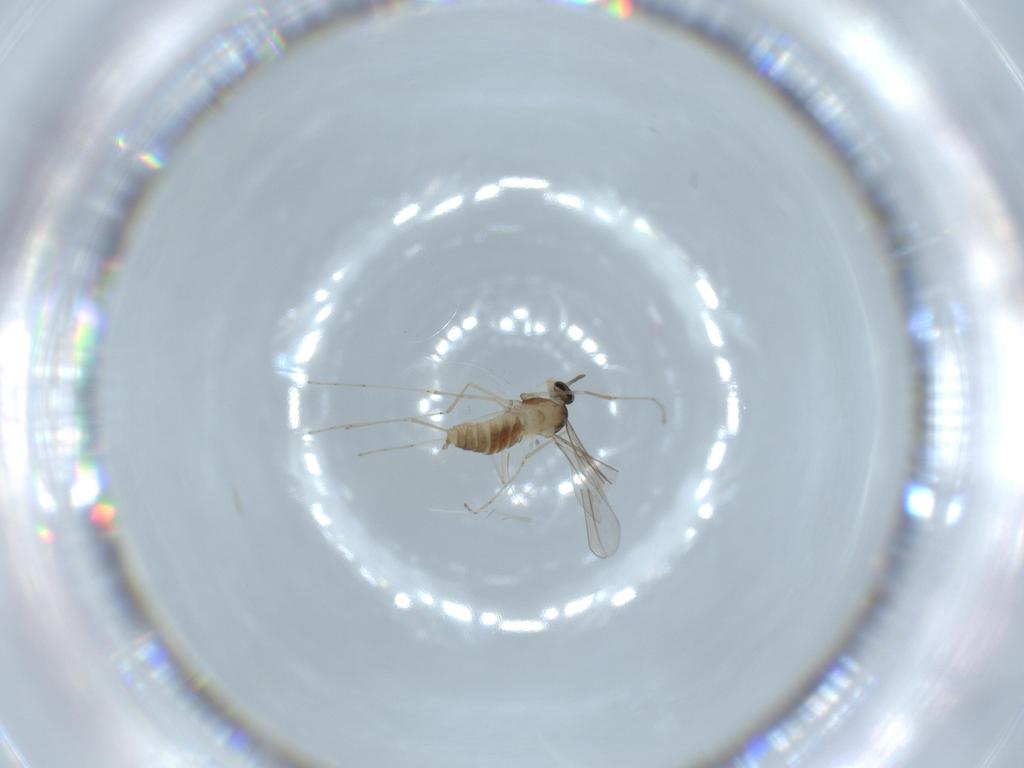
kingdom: Animalia
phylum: Arthropoda
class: Insecta
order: Diptera
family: Cecidomyiidae
